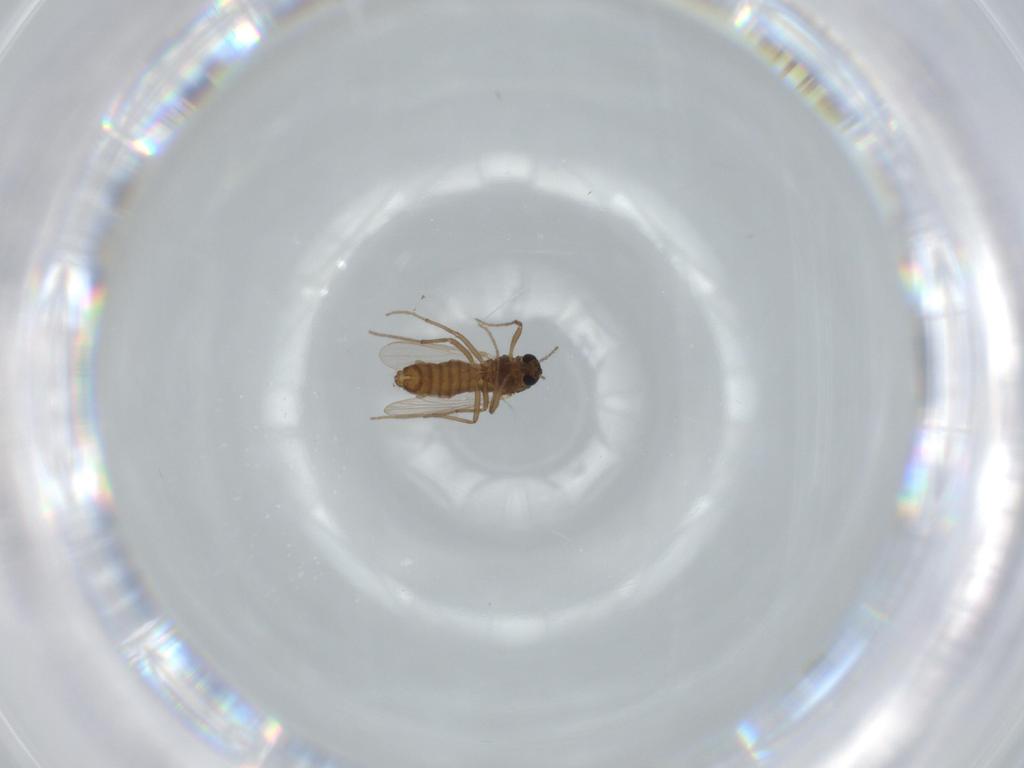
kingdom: Animalia
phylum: Arthropoda
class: Insecta
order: Diptera
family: Chironomidae
